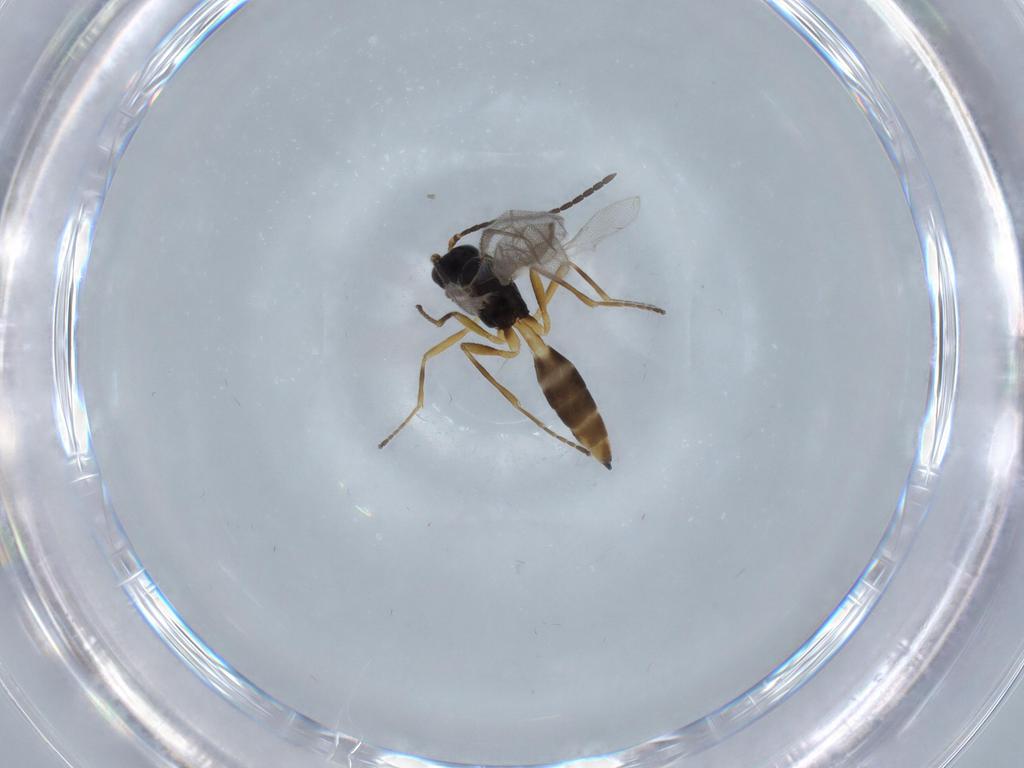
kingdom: Animalia
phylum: Arthropoda
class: Insecta
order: Hymenoptera
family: Braconidae
